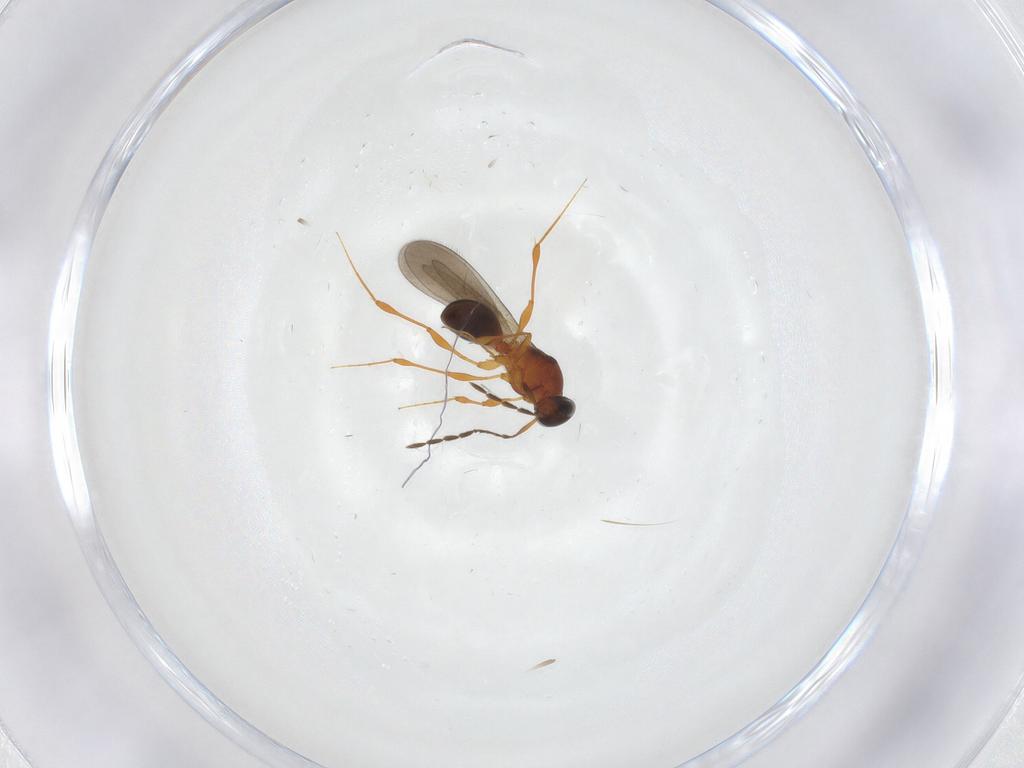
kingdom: Animalia
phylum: Arthropoda
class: Insecta
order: Hymenoptera
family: Platygastridae
